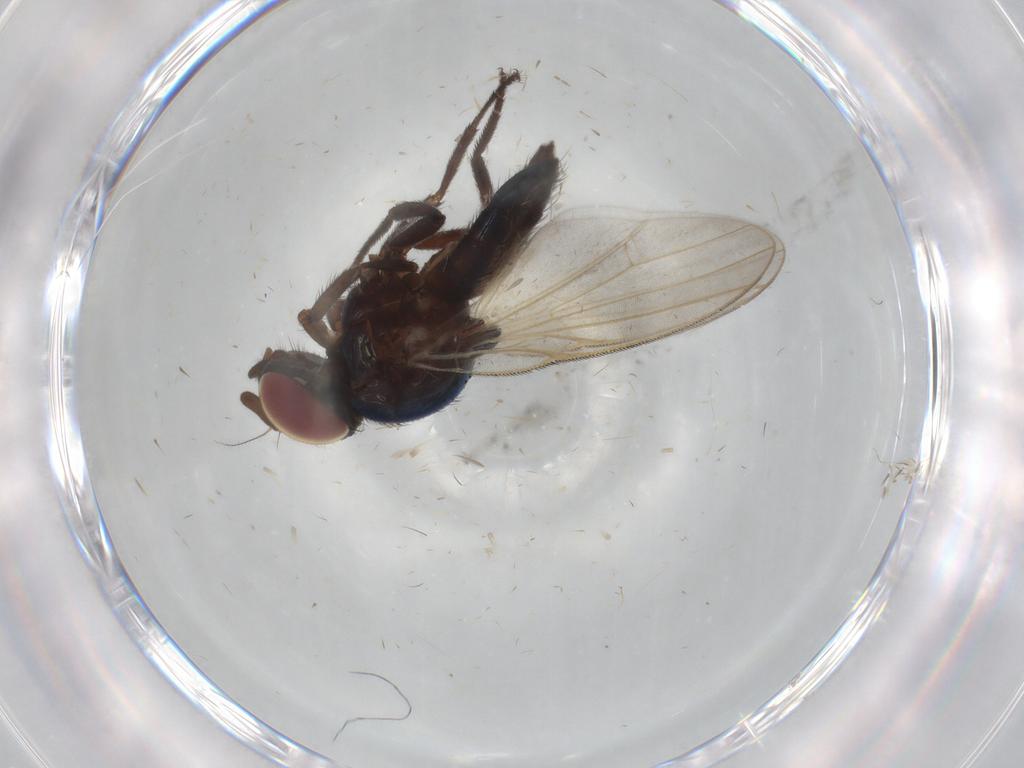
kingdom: Animalia
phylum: Arthropoda
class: Insecta
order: Diptera
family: Lonchaeidae
